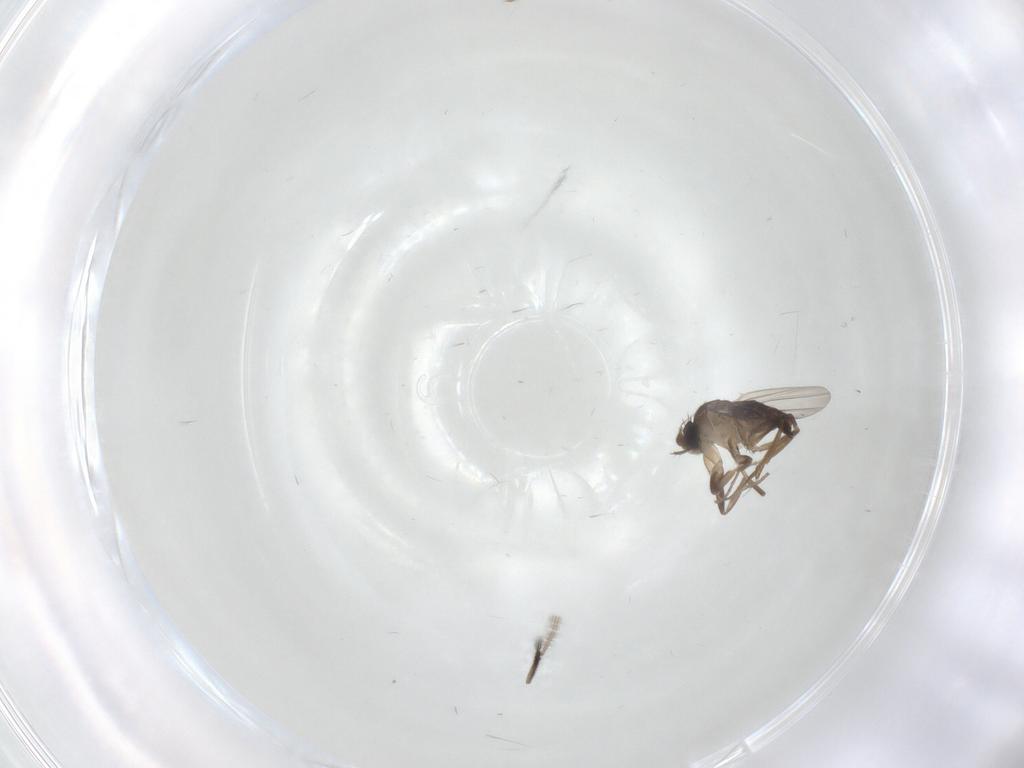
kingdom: Animalia
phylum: Arthropoda
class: Insecta
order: Diptera
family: Phoridae
